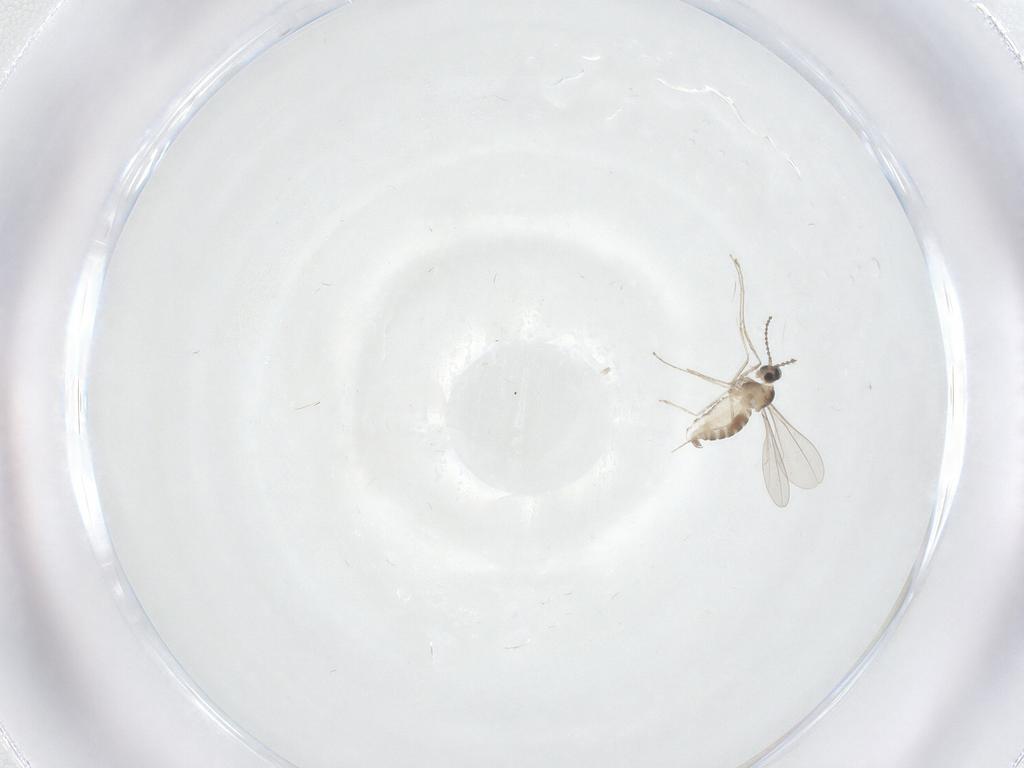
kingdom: Animalia
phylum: Arthropoda
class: Insecta
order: Diptera
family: Cecidomyiidae
